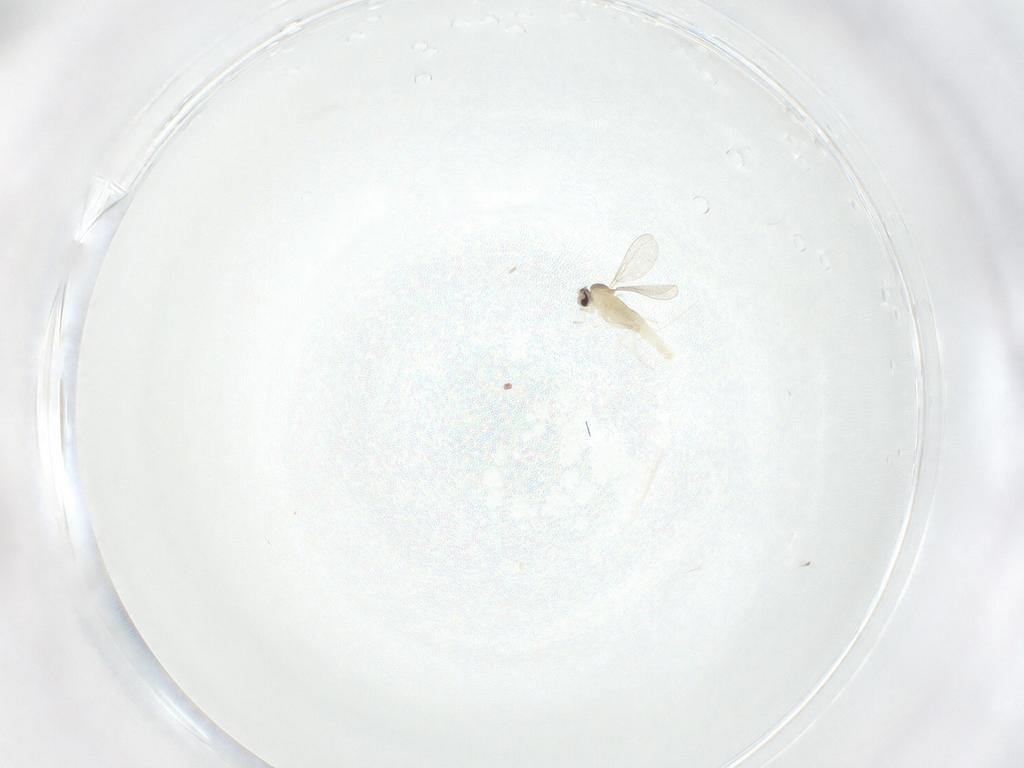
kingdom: Animalia
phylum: Arthropoda
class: Insecta
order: Diptera
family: Cecidomyiidae
